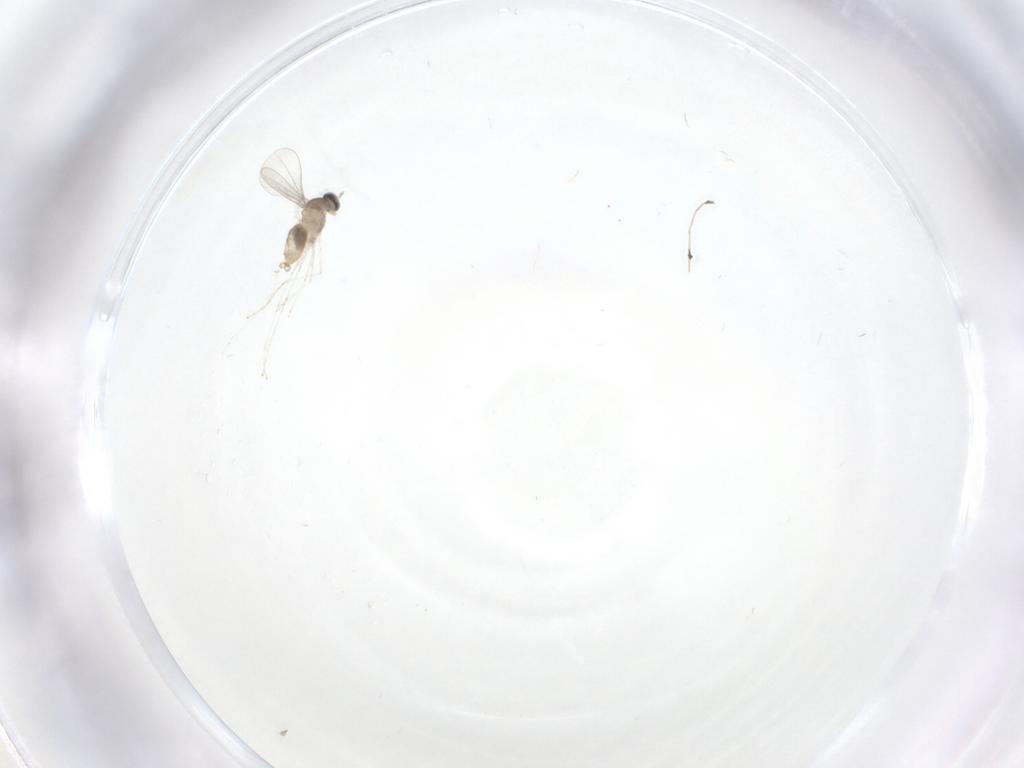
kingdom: Animalia
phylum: Arthropoda
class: Insecta
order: Diptera
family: Cecidomyiidae
